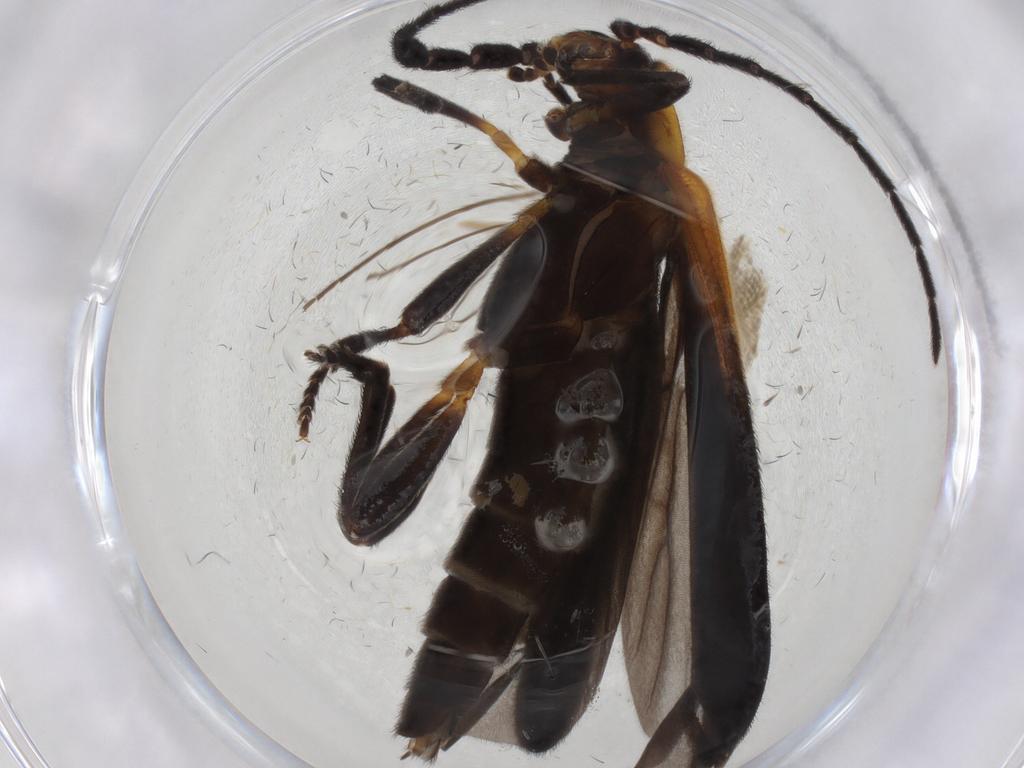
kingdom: Animalia
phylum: Arthropoda
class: Insecta
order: Coleoptera
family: Lycidae
